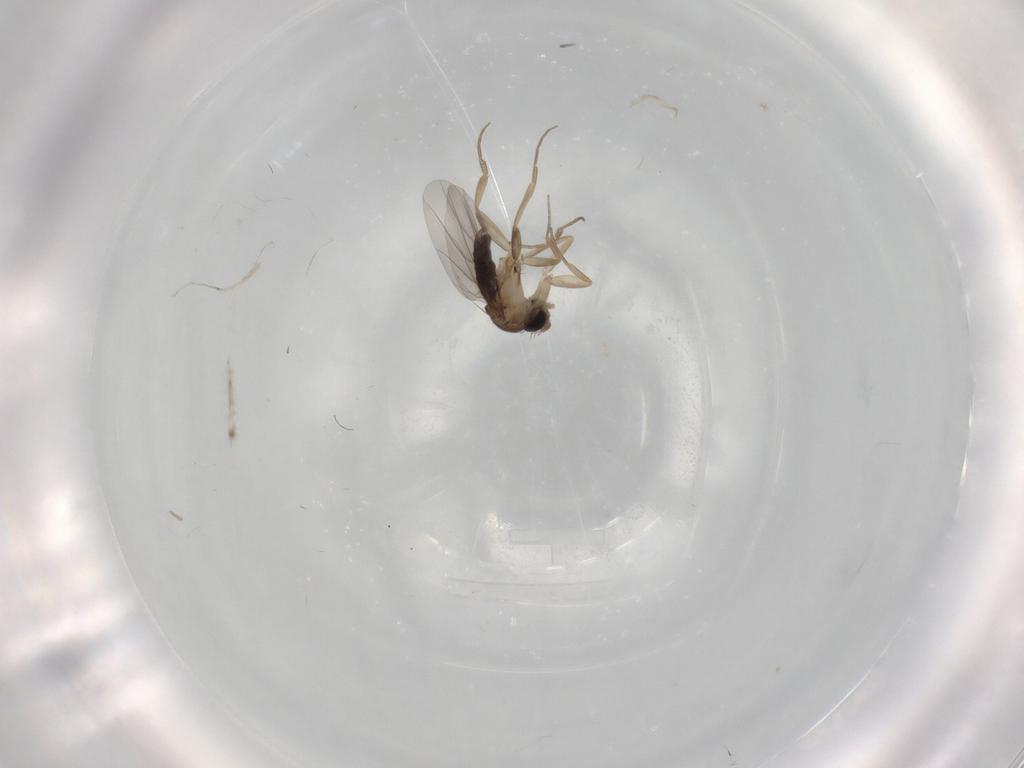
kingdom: Animalia
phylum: Arthropoda
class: Insecta
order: Diptera
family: Phoridae
